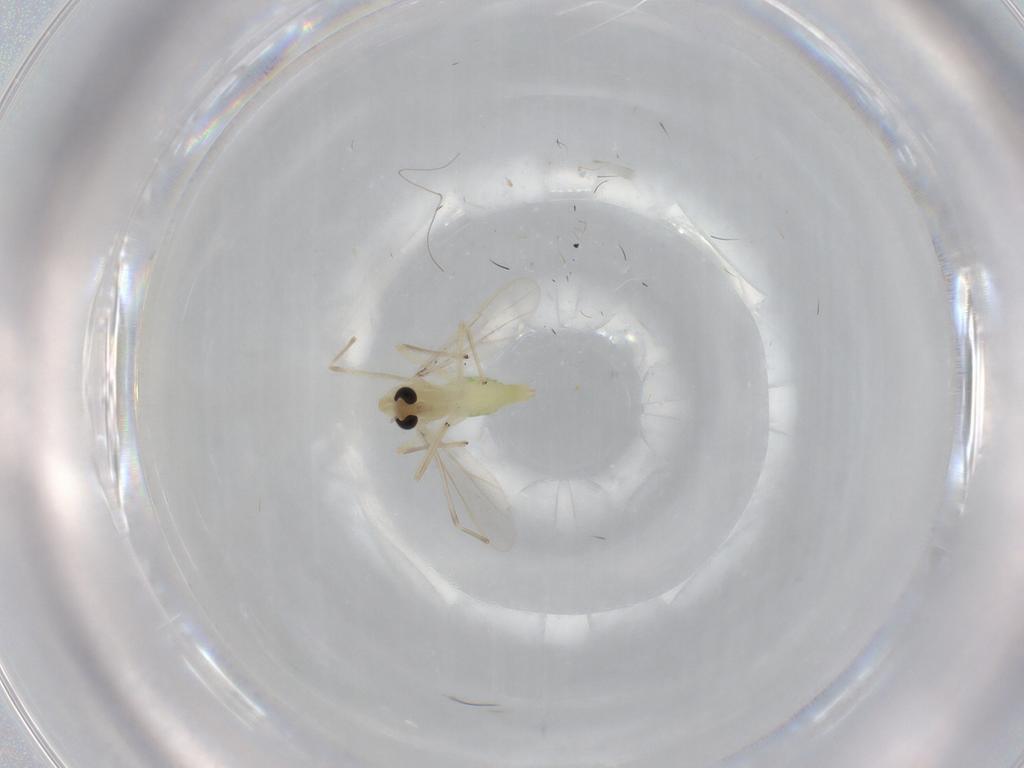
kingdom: Animalia
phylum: Arthropoda
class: Insecta
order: Diptera
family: Chironomidae
